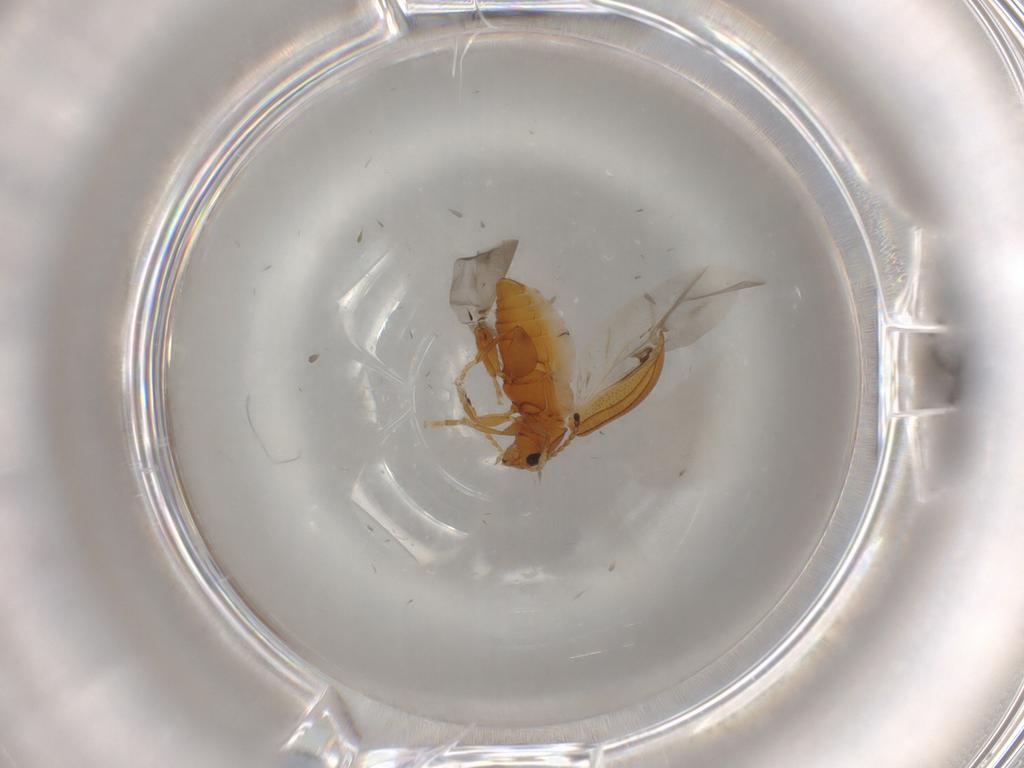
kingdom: Animalia
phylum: Arthropoda
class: Insecta
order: Coleoptera
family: Chrysomelidae
